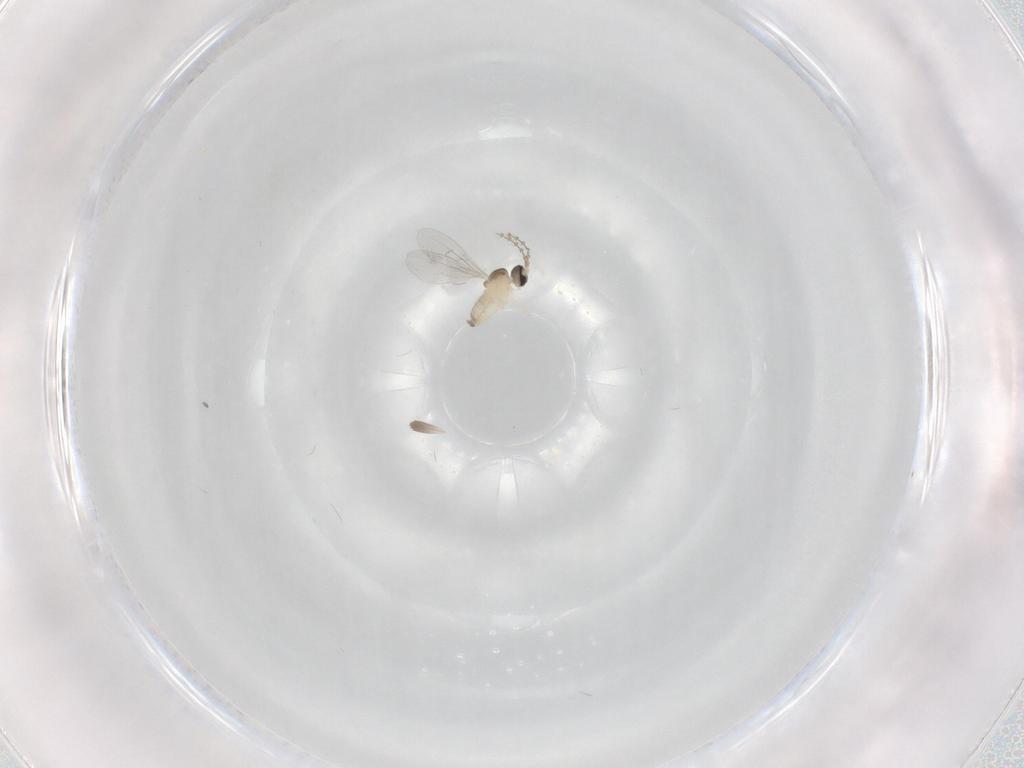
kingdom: Animalia
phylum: Arthropoda
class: Insecta
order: Diptera
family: Cecidomyiidae
